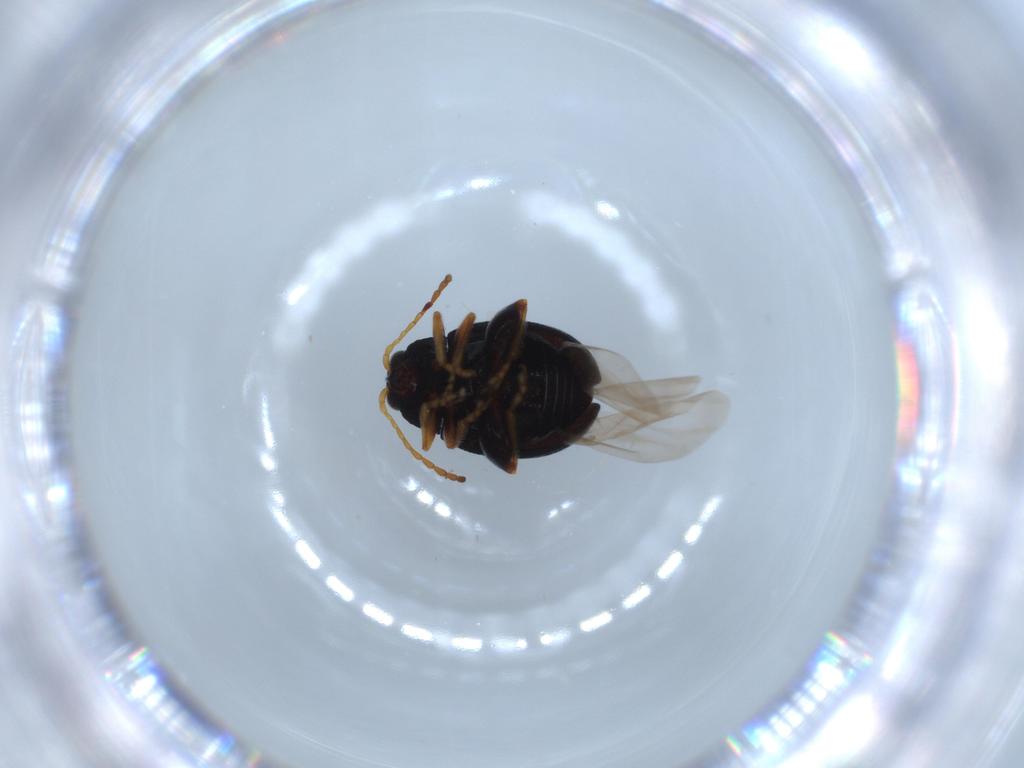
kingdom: Animalia
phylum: Arthropoda
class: Insecta
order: Coleoptera
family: Chrysomelidae
